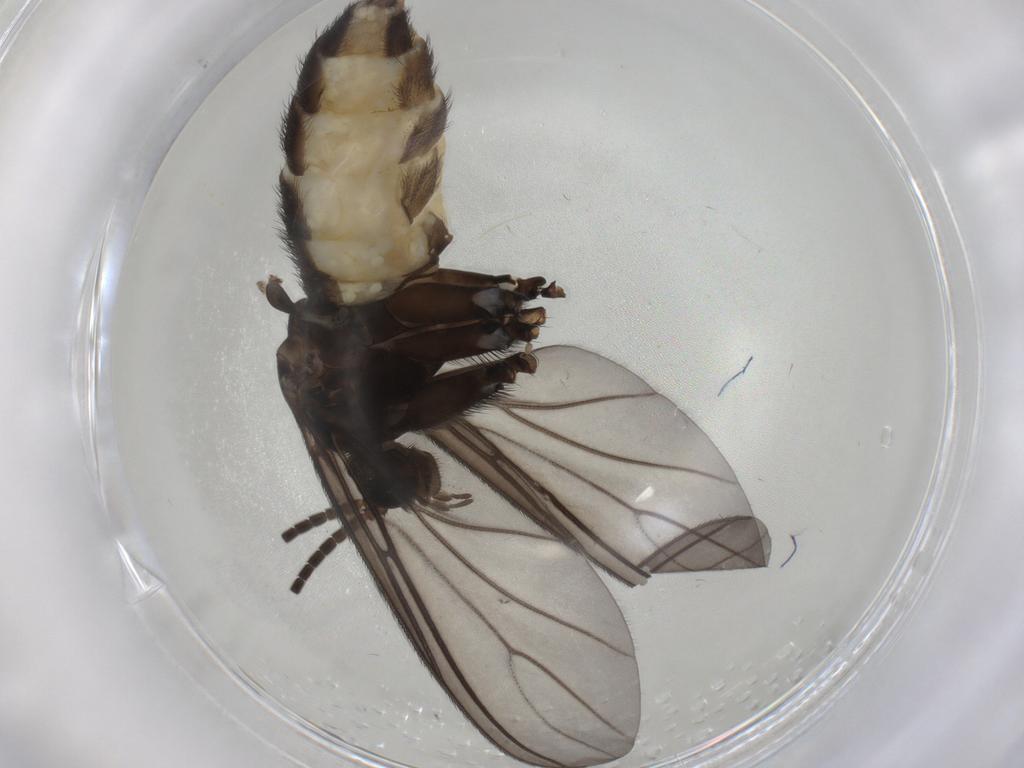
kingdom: Animalia
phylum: Arthropoda
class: Insecta
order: Diptera
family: Sciaridae
